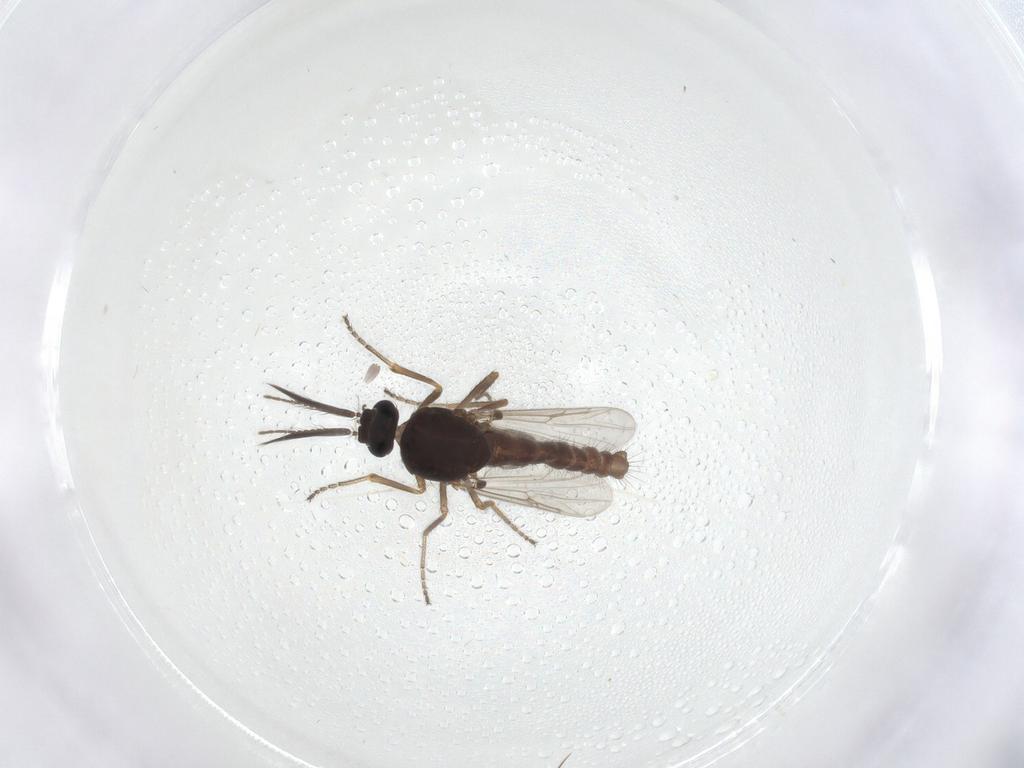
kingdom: Animalia
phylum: Arthropoda
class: Insecta
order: Diptera
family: Ceratopogonidae
